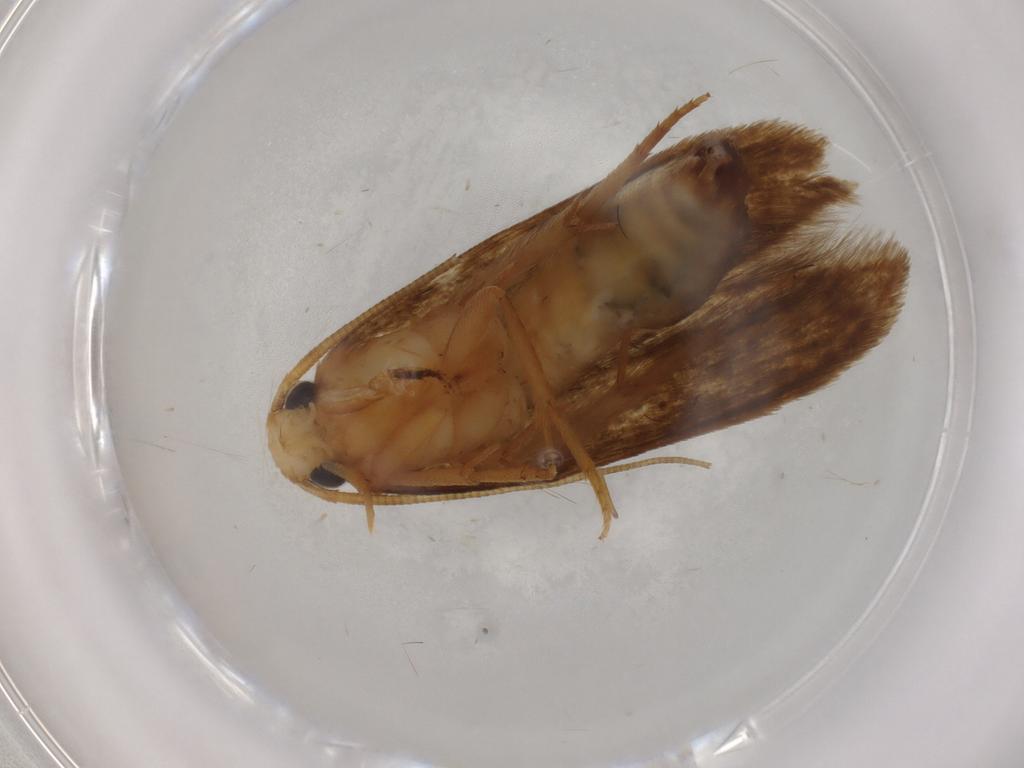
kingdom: Animalia
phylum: Arthropoda
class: Insecta
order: Lepidoptera
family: Tineidae
